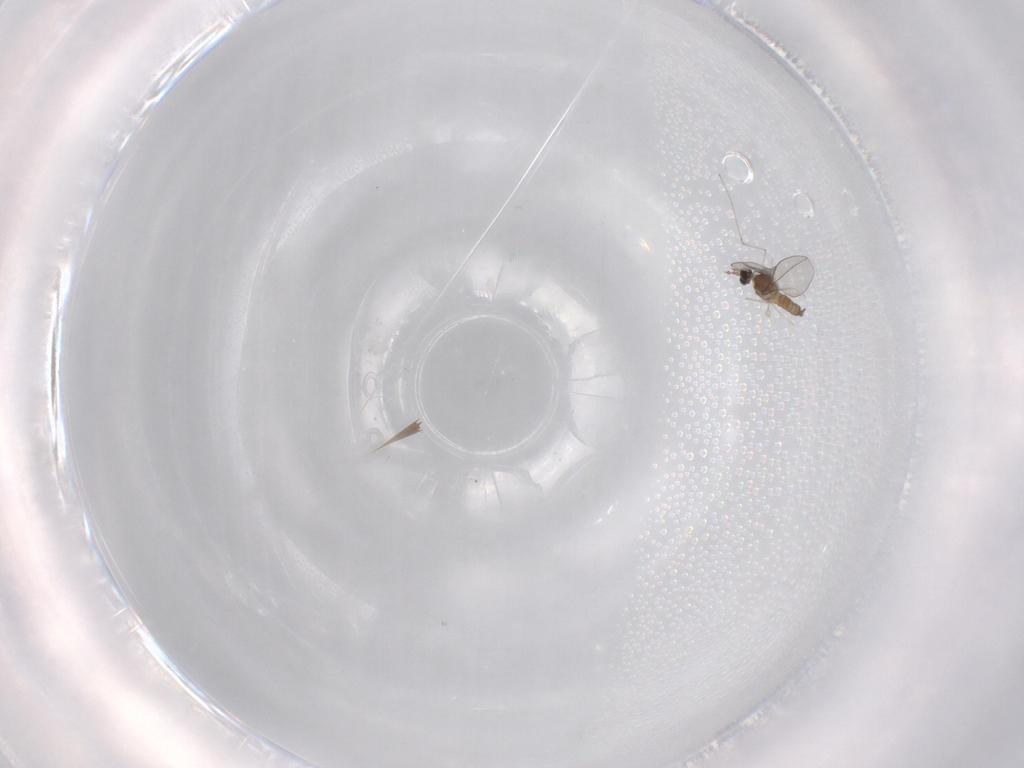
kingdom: Animalia
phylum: Arthropoda
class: Insecta
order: Diptera
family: Cecidomyiidae
